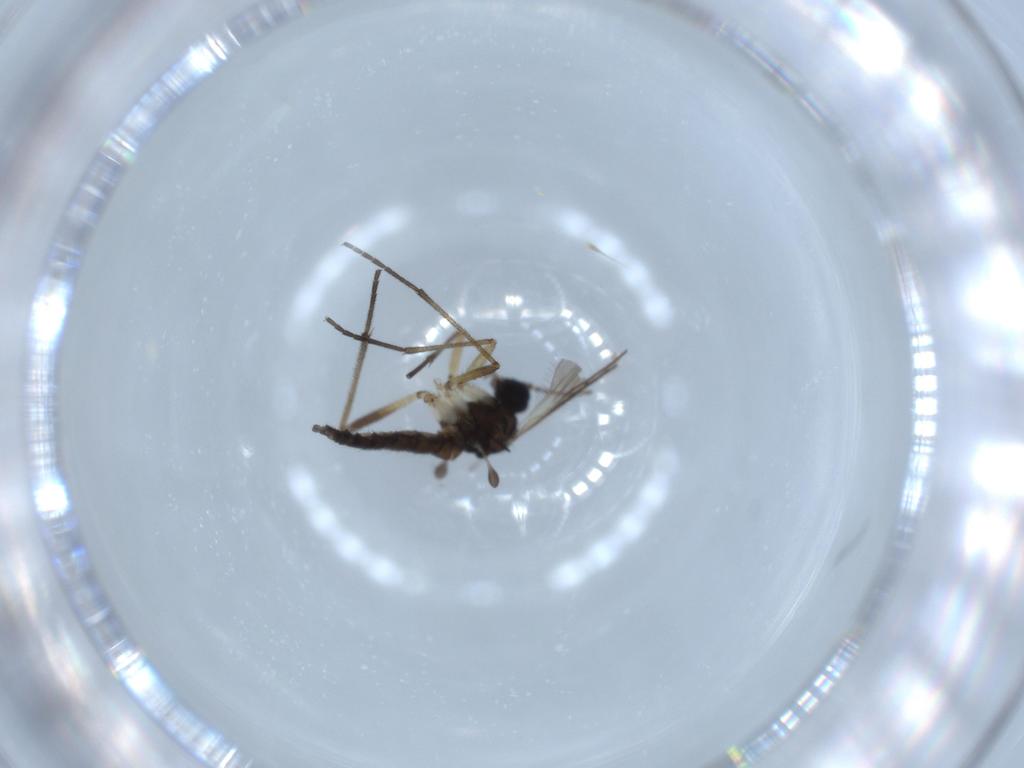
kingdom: Animalia
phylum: Arthropoda
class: Insecta
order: Diptera
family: Sciaridae
